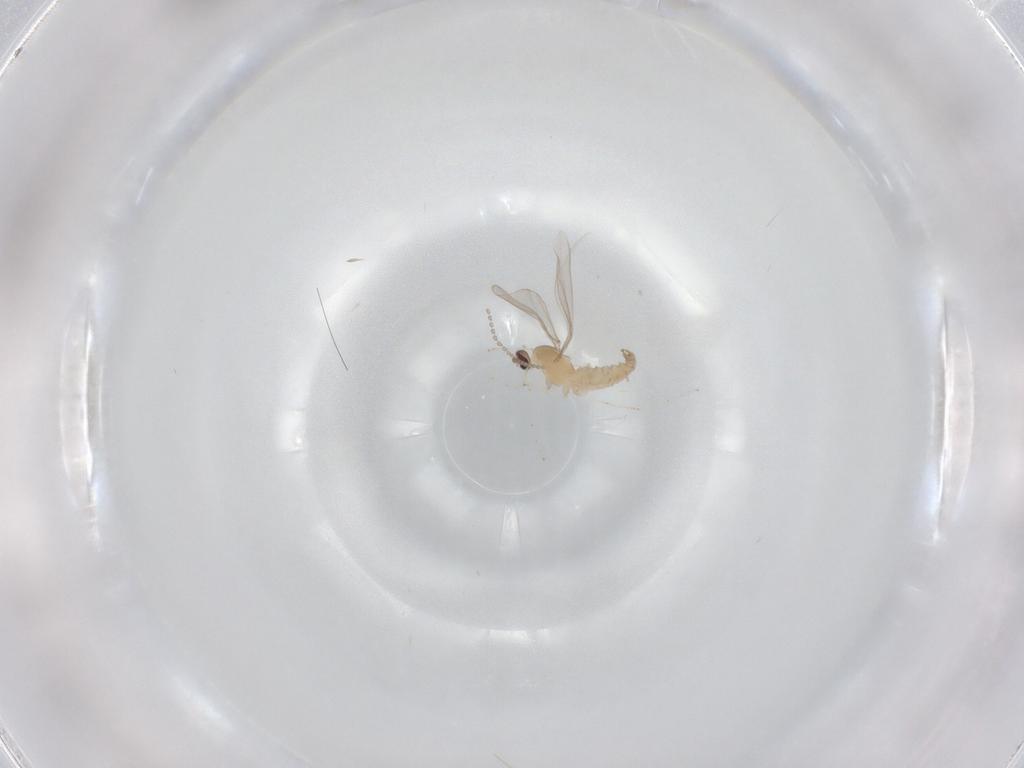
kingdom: Animalia
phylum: Arthropoda
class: Insecta
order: Diptera
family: Cecidomyiidae
